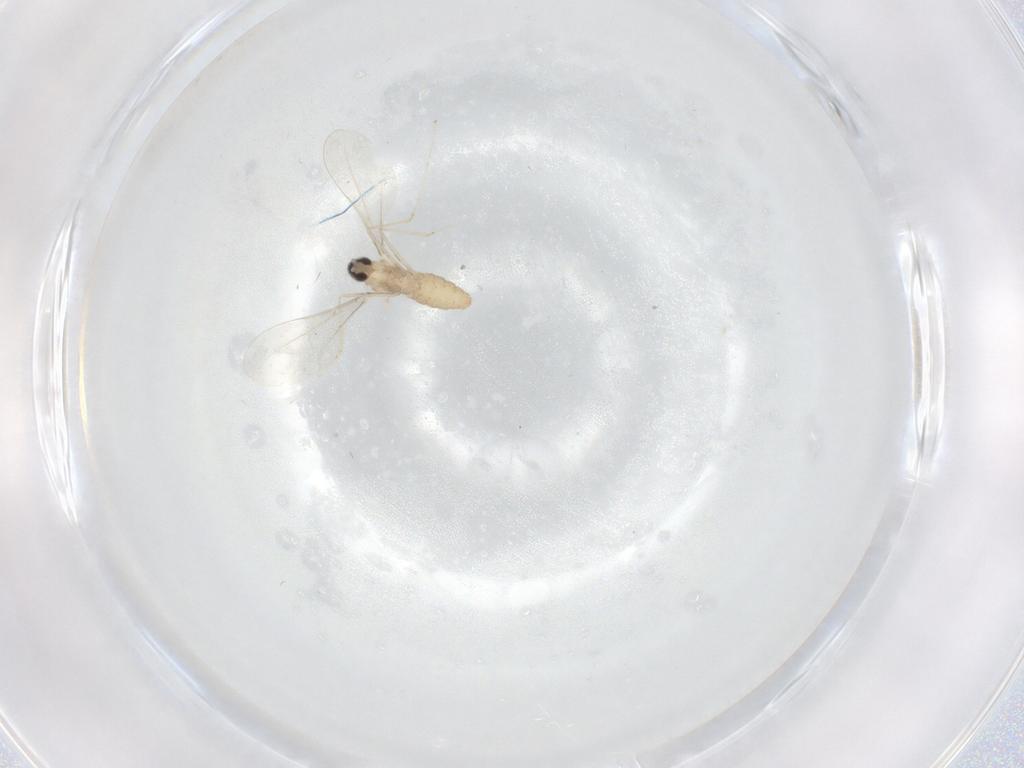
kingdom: Animalia
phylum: Arthropoda
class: Insecta
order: Diptera
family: Cecidomyiidae
